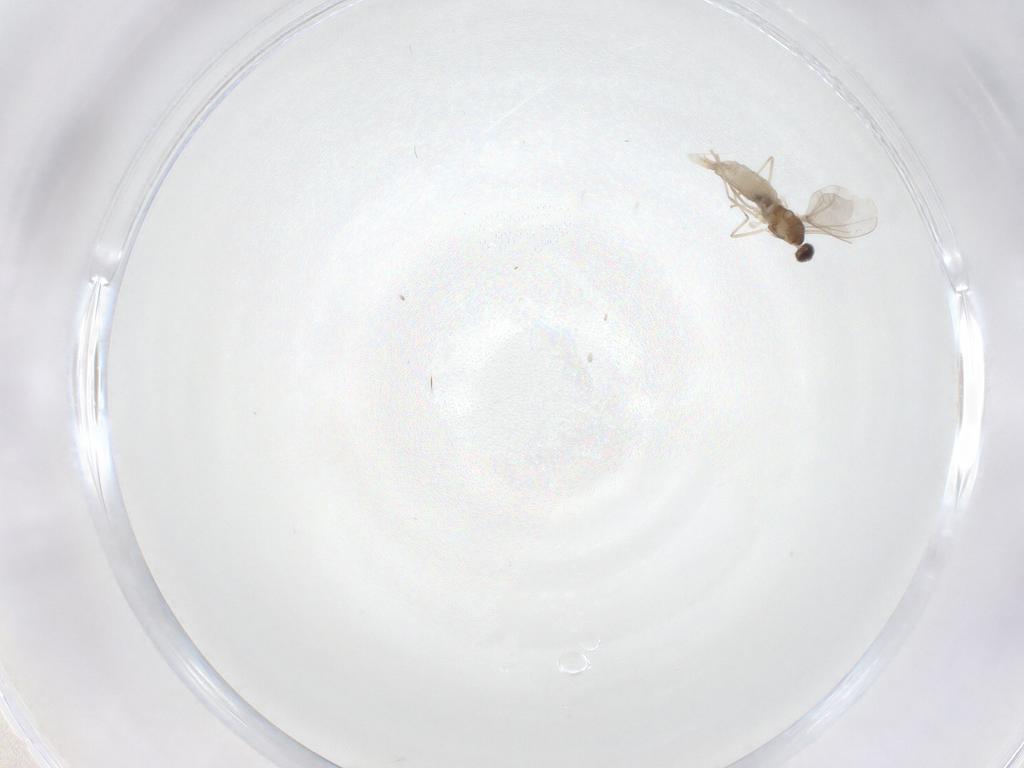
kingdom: Animalia
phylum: Arthropoda
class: Insecta
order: Diptera
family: Cecidomyiidae
